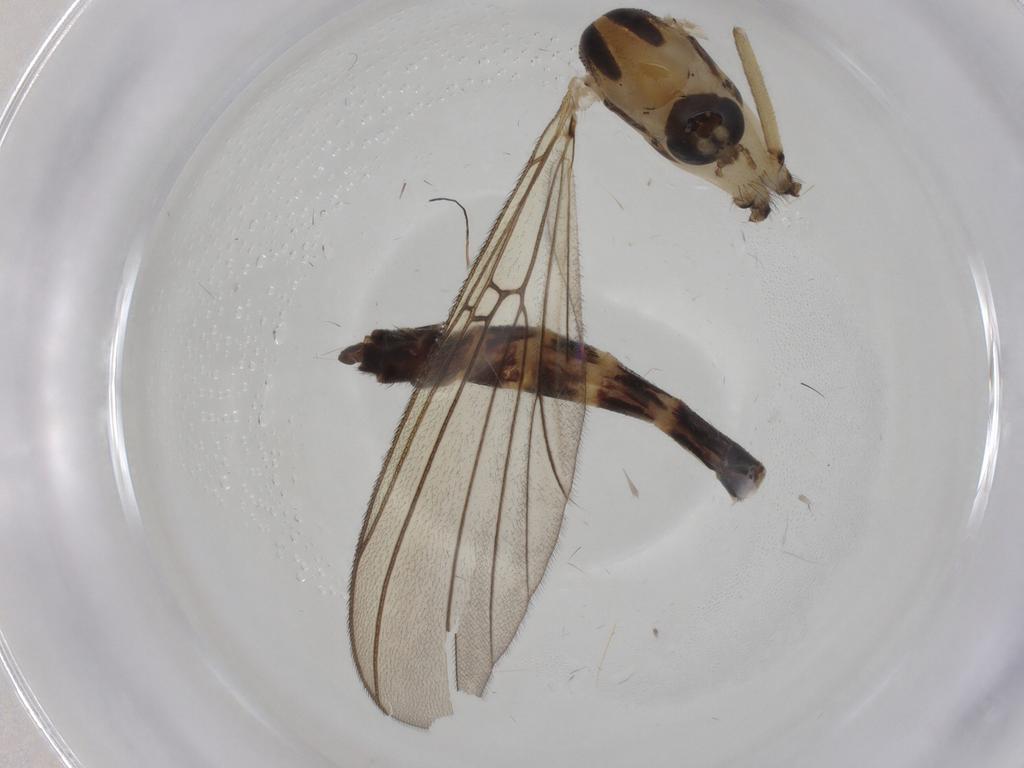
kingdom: Animalia
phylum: Arthropoda
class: Insecta
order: Diptera
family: Mycetophilidae
